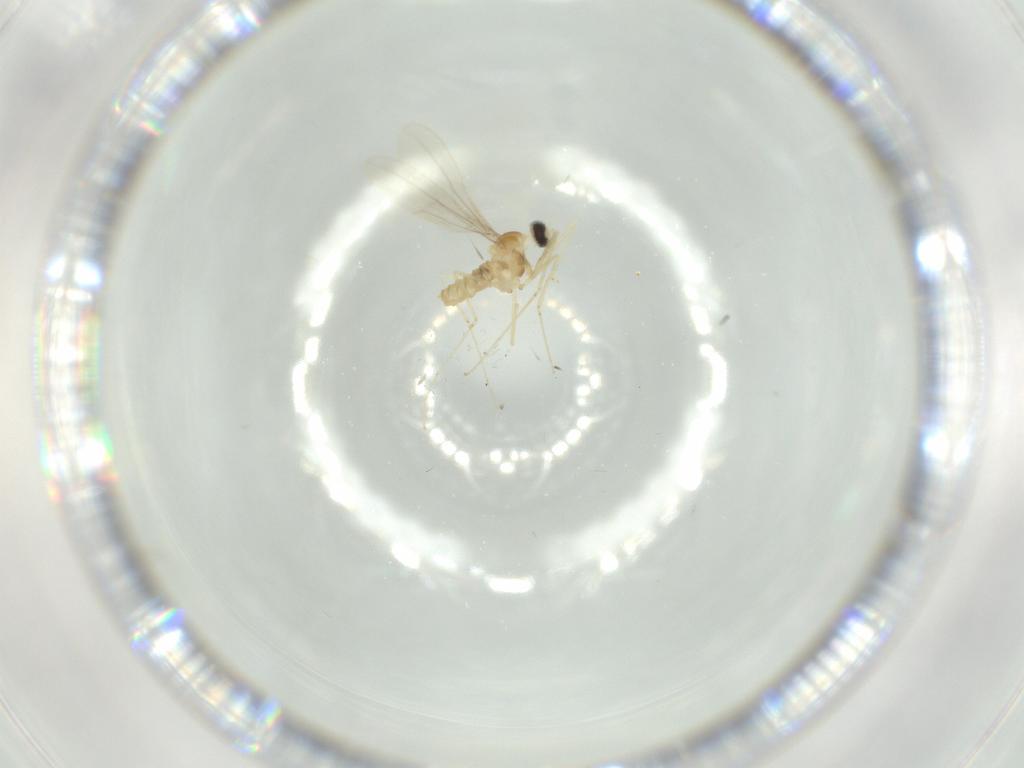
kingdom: Animalia
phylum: Arthropoda
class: Insecta
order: Diptera
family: Cecidomyiidae
